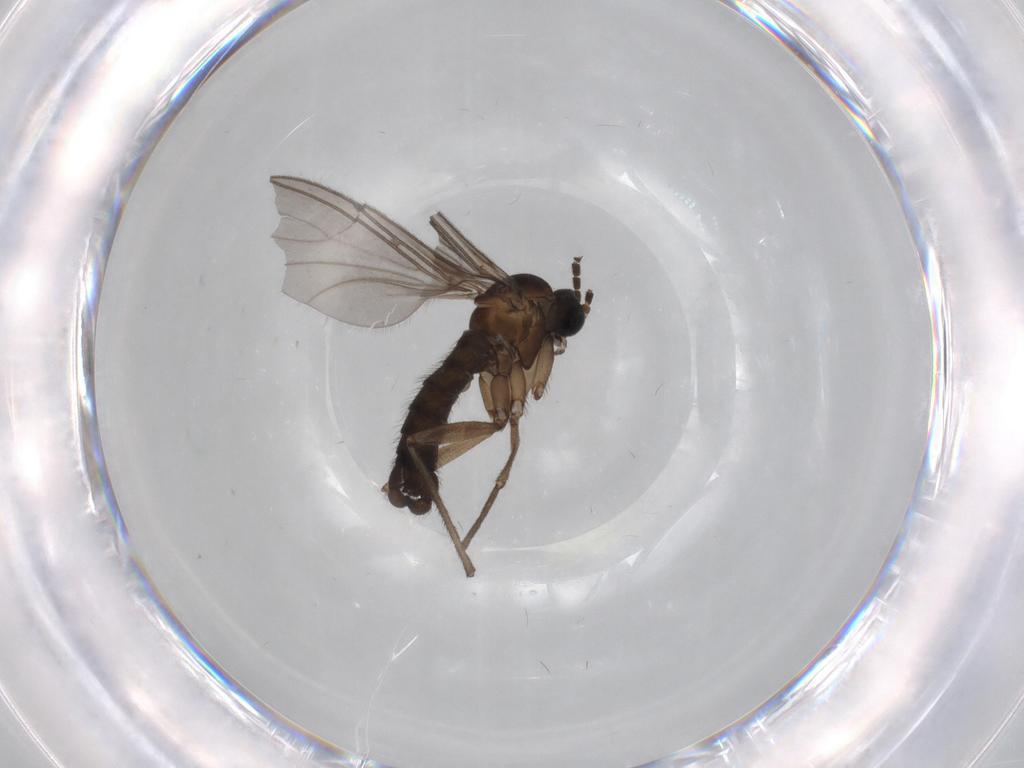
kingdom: Animalia
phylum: Arthropoda
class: Insecta
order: Diptera
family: Sciaridae
